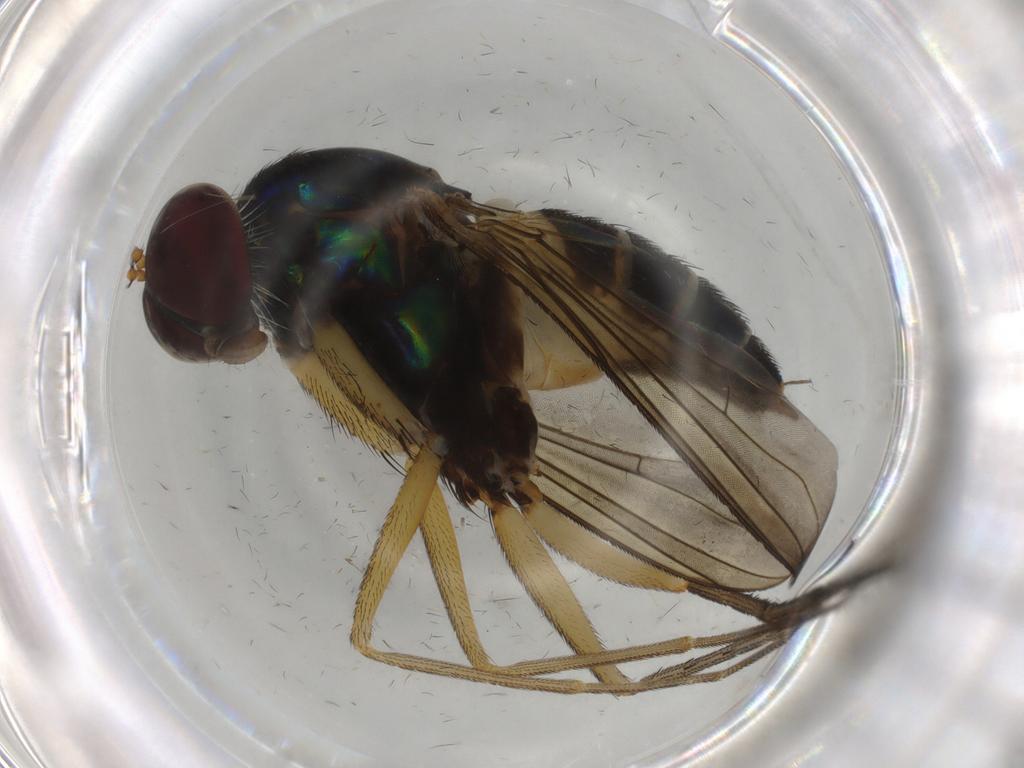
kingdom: Animalia
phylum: Arthropoda
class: Insecta
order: Diptera
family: Dolichopodidae
